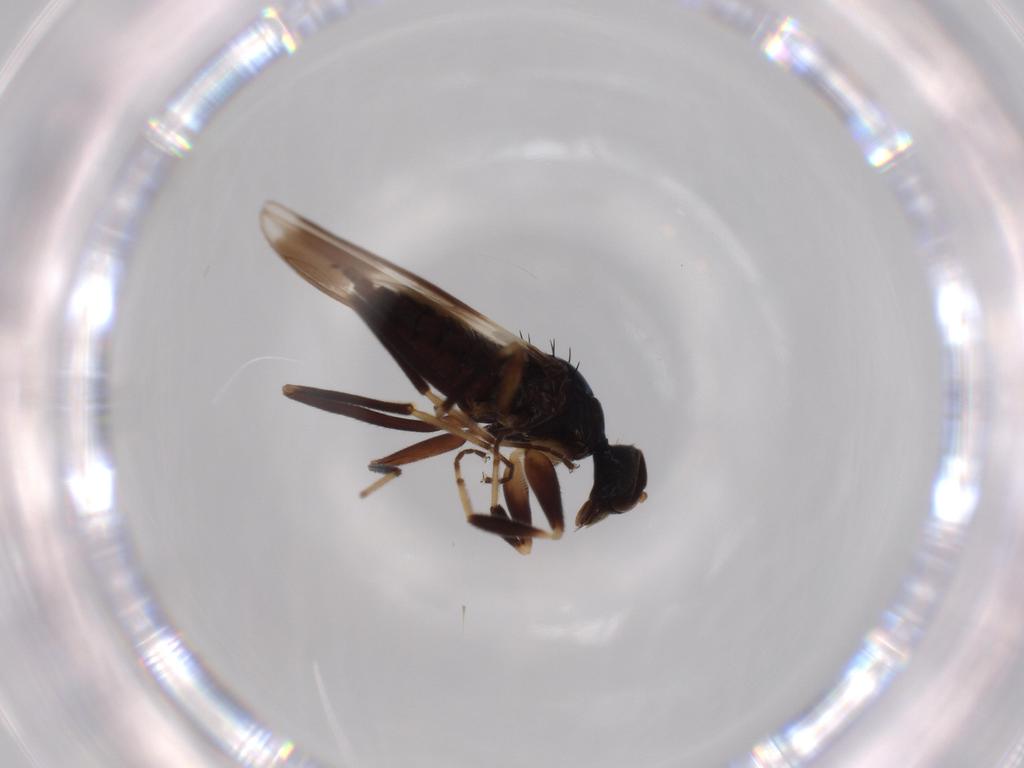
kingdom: Animalia
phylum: Arthropoda
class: Insecta
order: Diptera
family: Hybotidae
